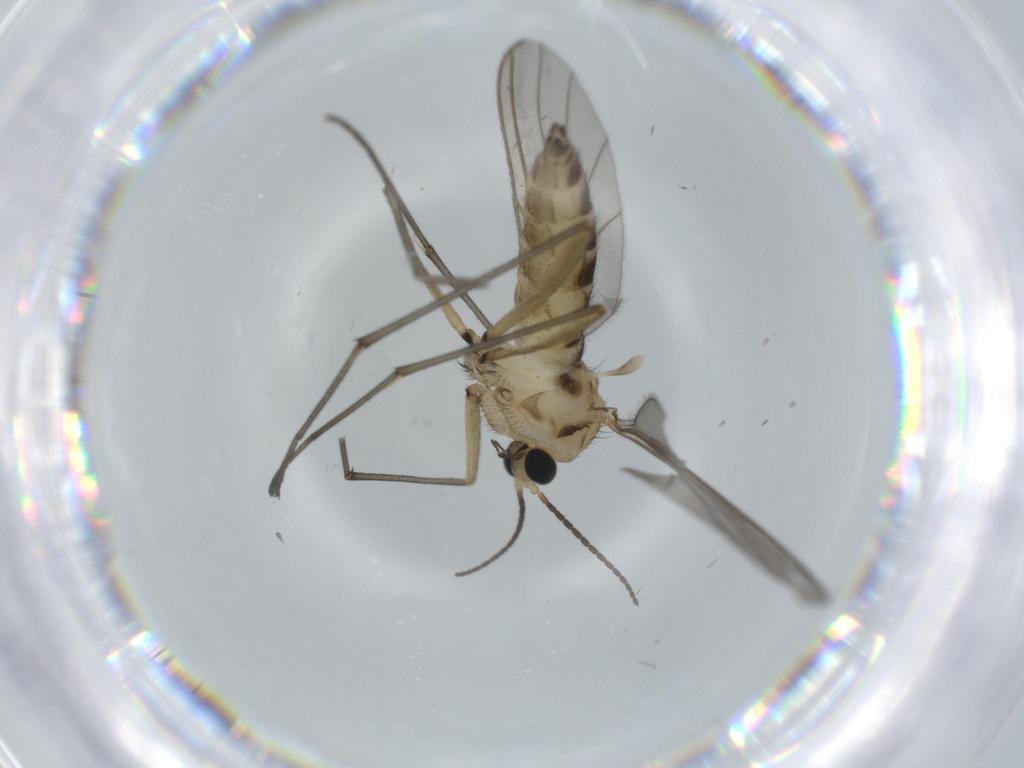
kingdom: Animalia
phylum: Arthropoda
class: Insecta
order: Diptera
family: Sciaridae
